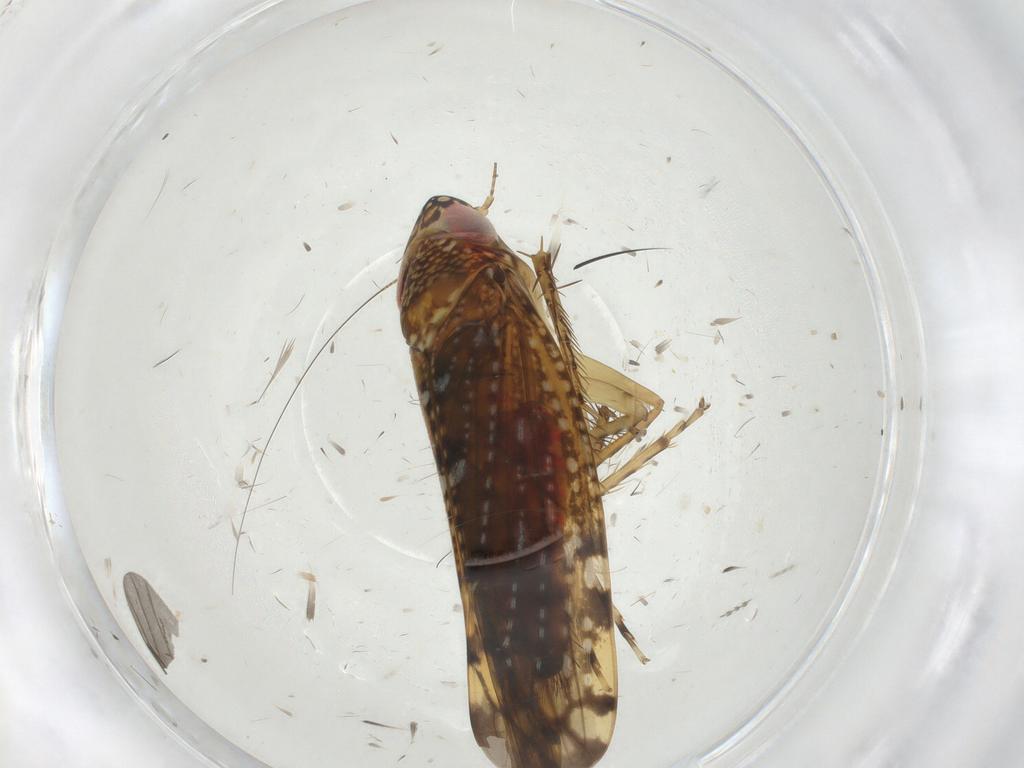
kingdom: Animalia
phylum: Arthropoda
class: Insecta
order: Hemiptera
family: Cicadellidae
